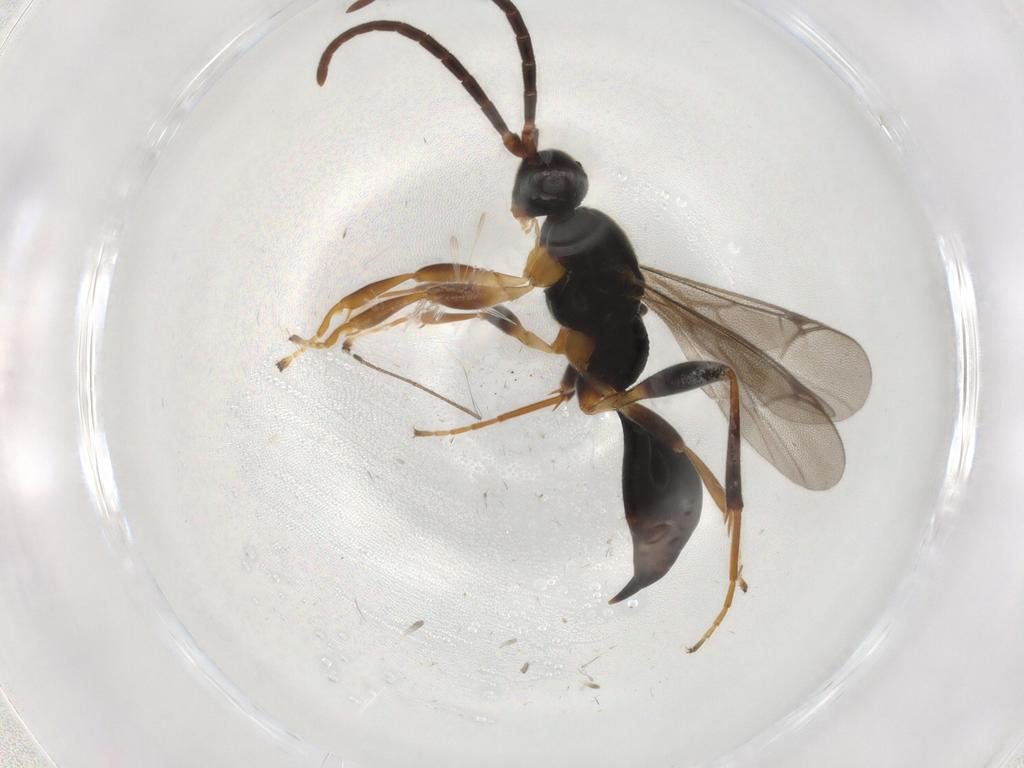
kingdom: Animalia
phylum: Arthropoda
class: Insecta
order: Hymenoptera
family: Proctotrupidae
